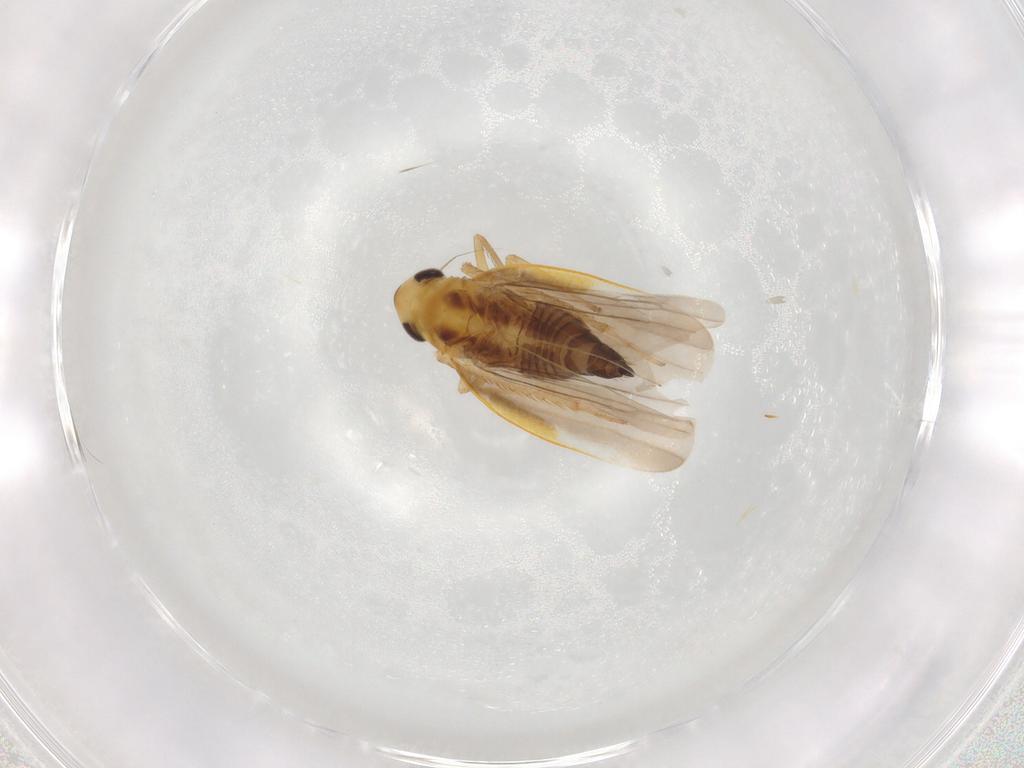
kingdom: Animalia
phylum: Arthropoda
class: Insecta
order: Hemiptera
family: Cicadellidae
